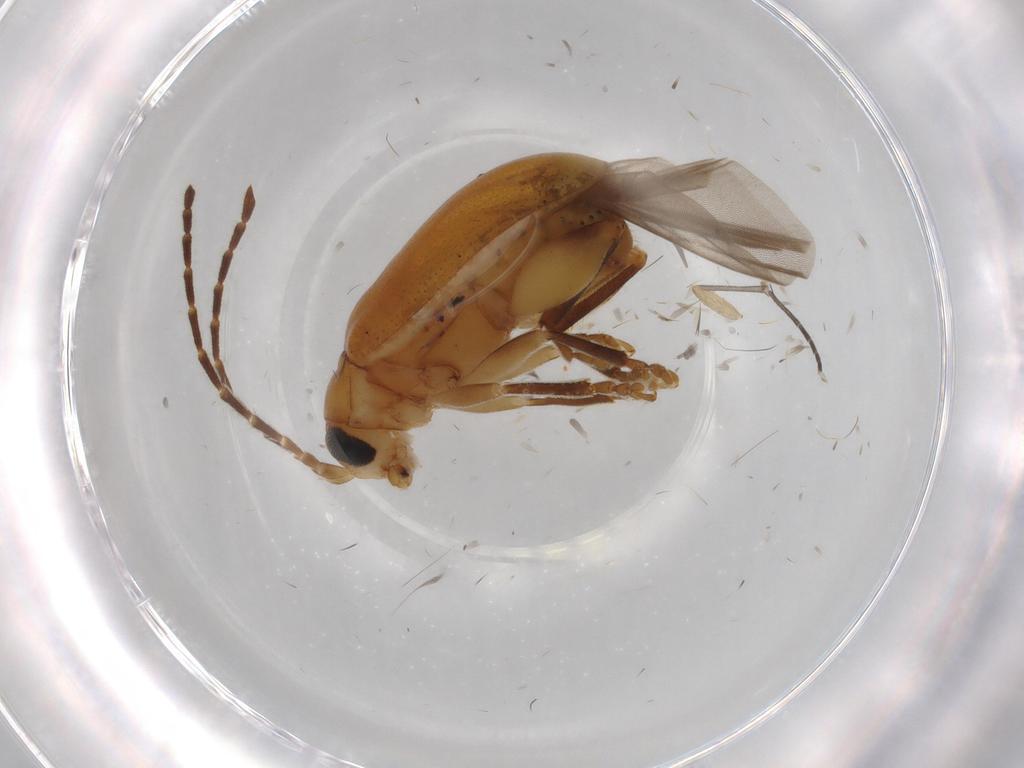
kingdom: Animalia
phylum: Arthropoda
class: Insecta
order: Coleoptera
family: Chrysomelidae
